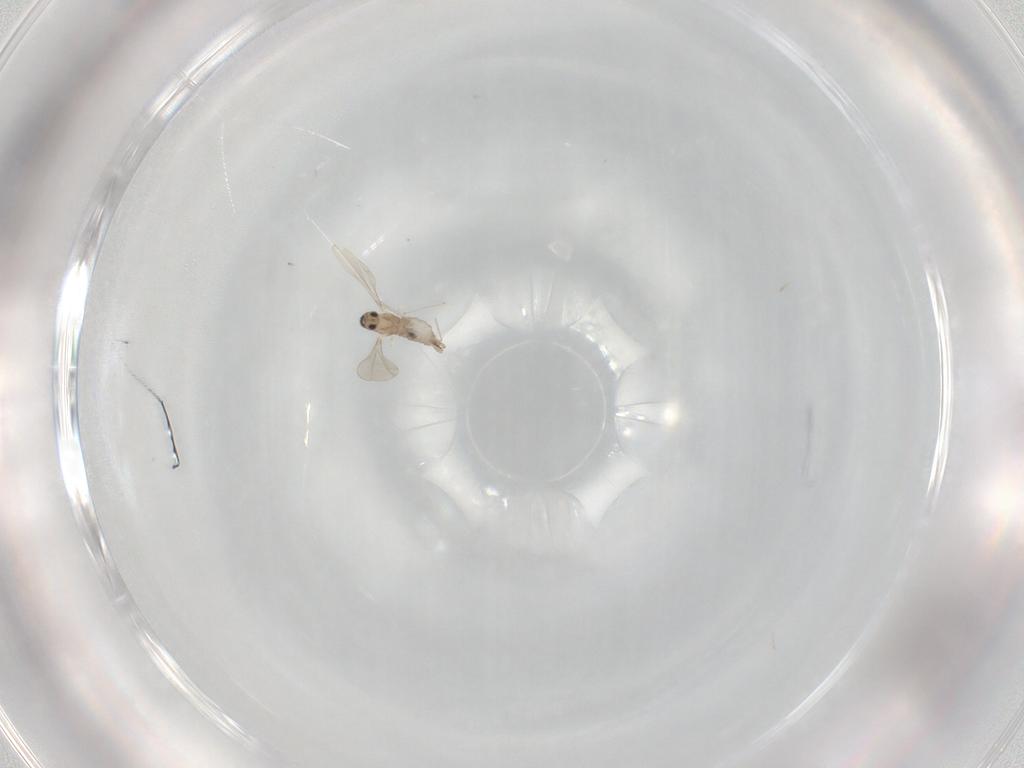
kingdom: Animalia
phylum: Arthropoda
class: Insecta
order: Diptera
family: Cecidomyiidae
